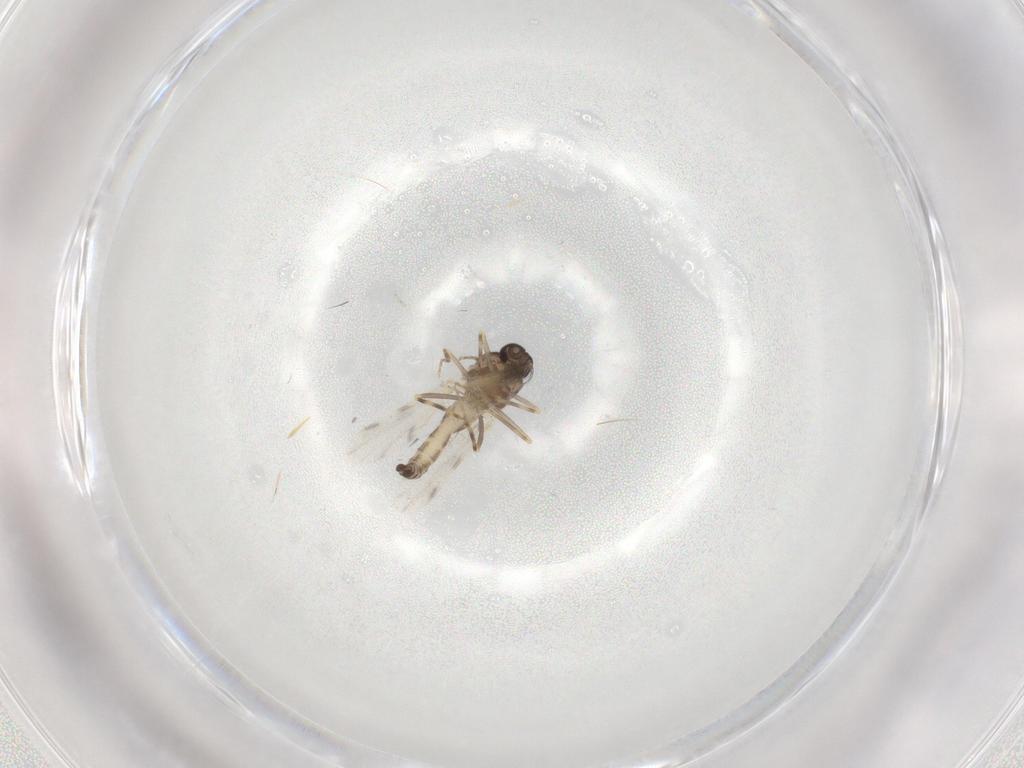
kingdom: Animalia
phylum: Arthropoda
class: Insecta
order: Diptera
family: Ceratopogonidae
